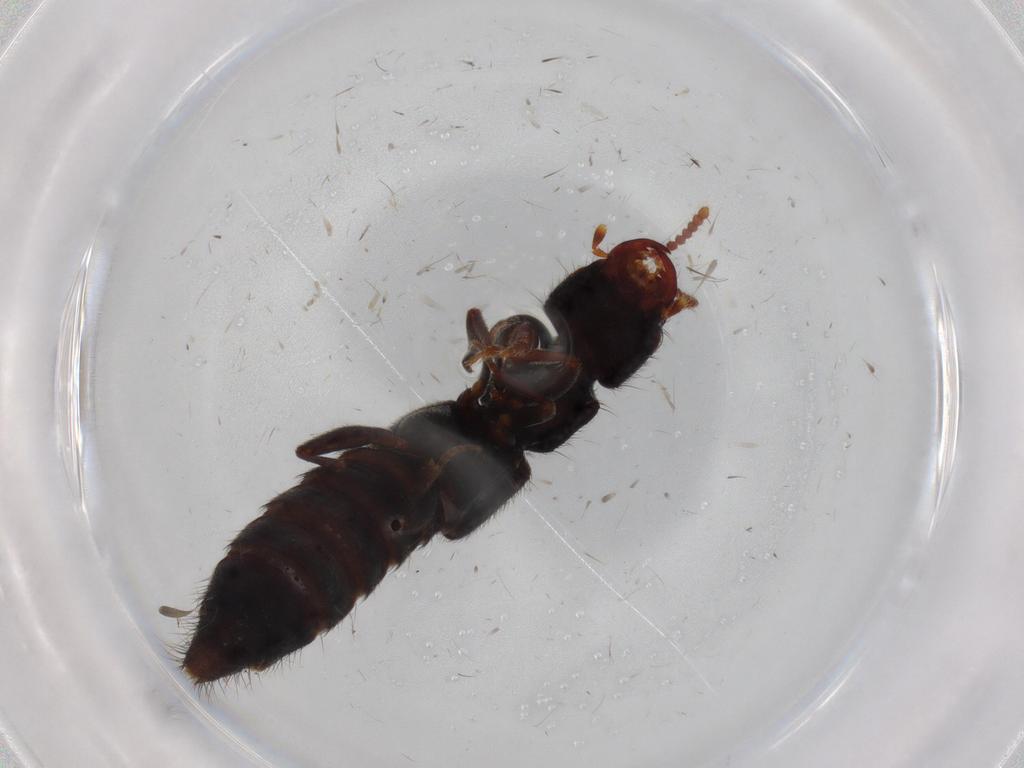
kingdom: Animalia
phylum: Arthropoda
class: Insecta
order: Coleoptera
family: Staphylinidae
